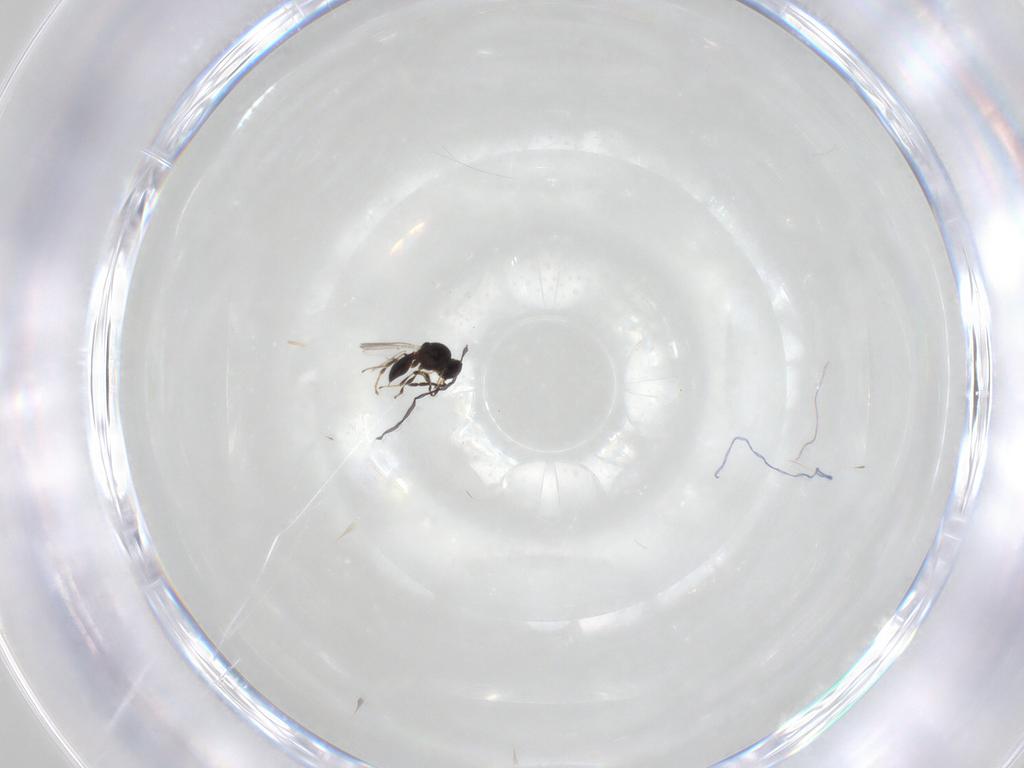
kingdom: Animalia
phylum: Arthropoda
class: Insecta
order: Hymenoptera
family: Platygastridae
